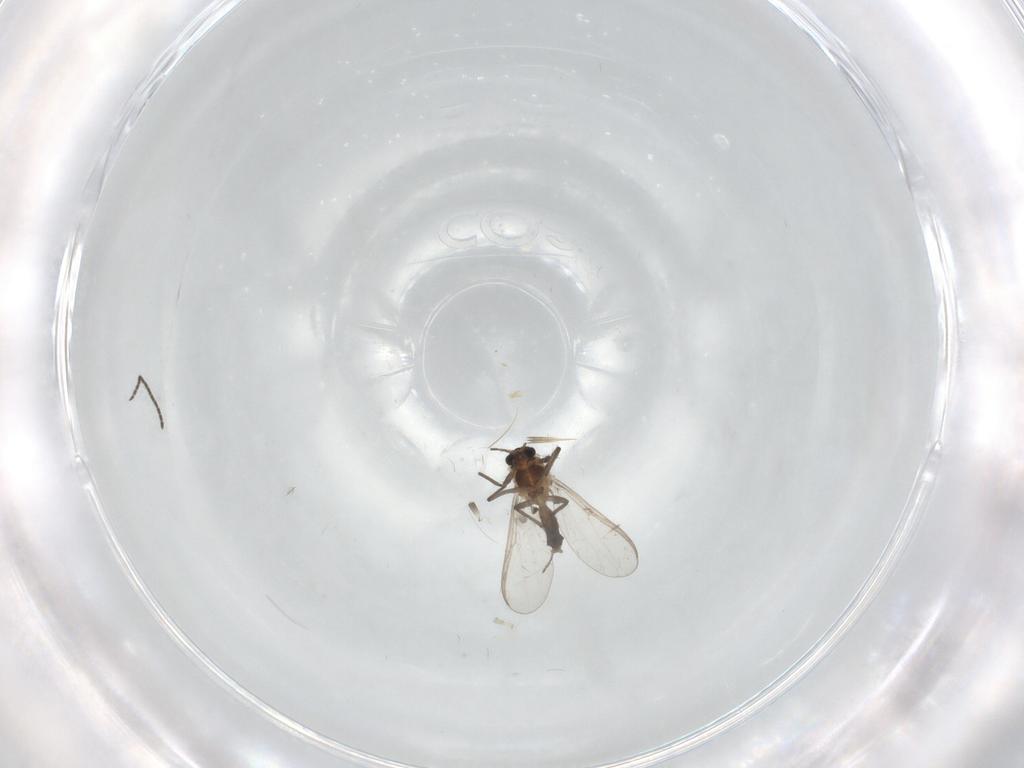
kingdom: Animalia
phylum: Arthropoda
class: Insecta
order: Diptera
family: Chironomidae
